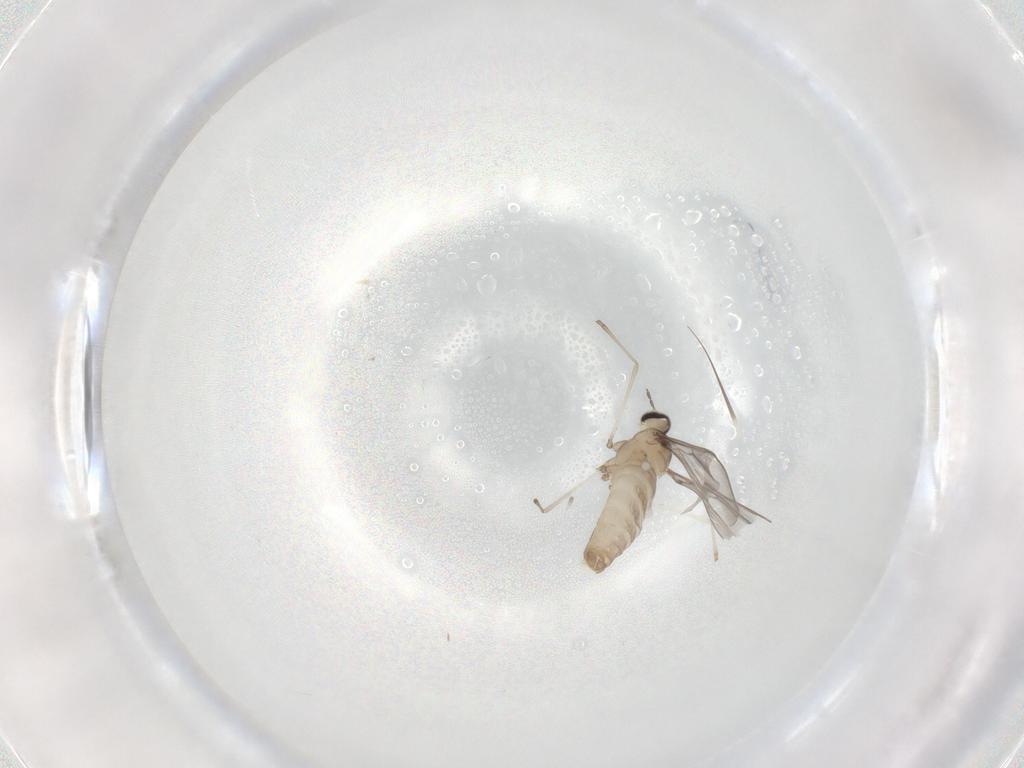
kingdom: Animalia
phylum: Arthropoda
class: Insecta
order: Diptera
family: Cecidomyiidae
